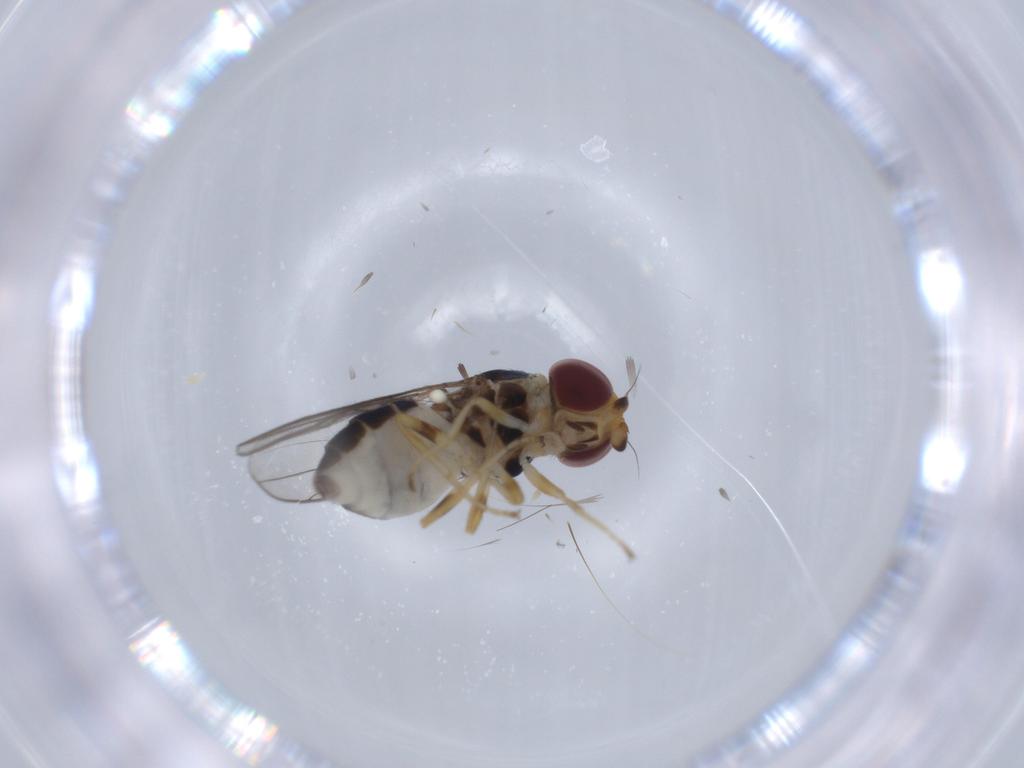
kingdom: Animalia
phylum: Arthropoda
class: Insecta
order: Diptera
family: Chloropidae
